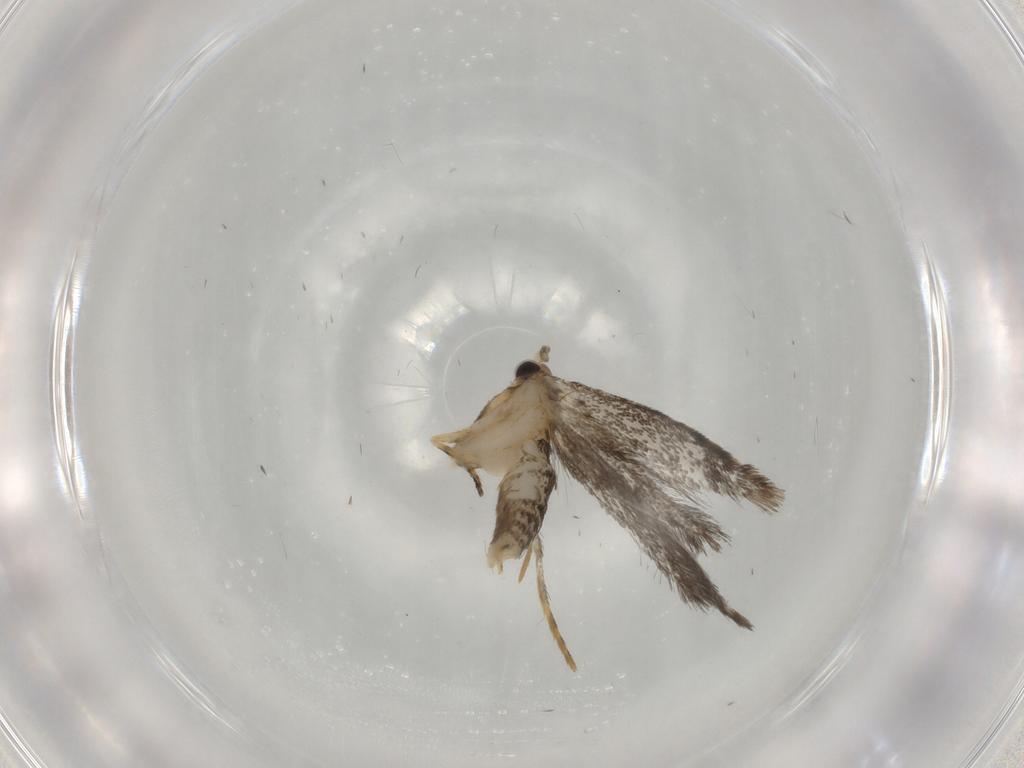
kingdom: Animalia
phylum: Arthropoda
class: Insecta
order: Lepidoptera
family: Tineidae
